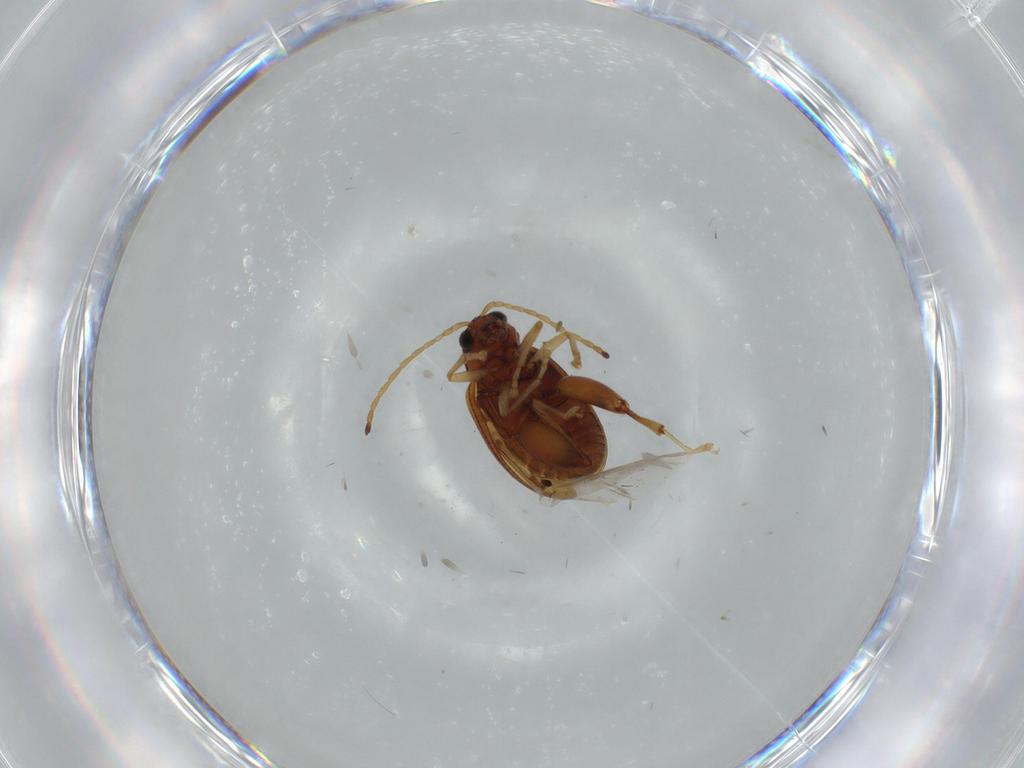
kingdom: Animalia
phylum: Arthropoda
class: Insecta
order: Coleoptera
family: Chrysomelidae
